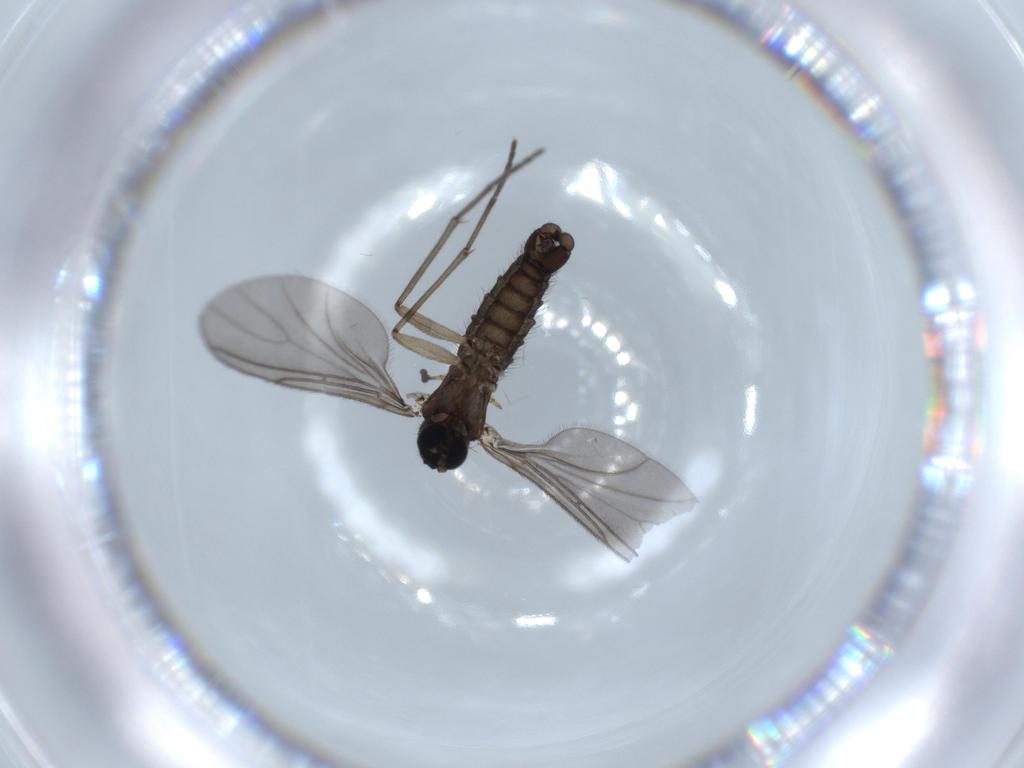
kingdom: Animalia
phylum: Arthropoda
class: Insecta
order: Diptera
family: Sciaridae
